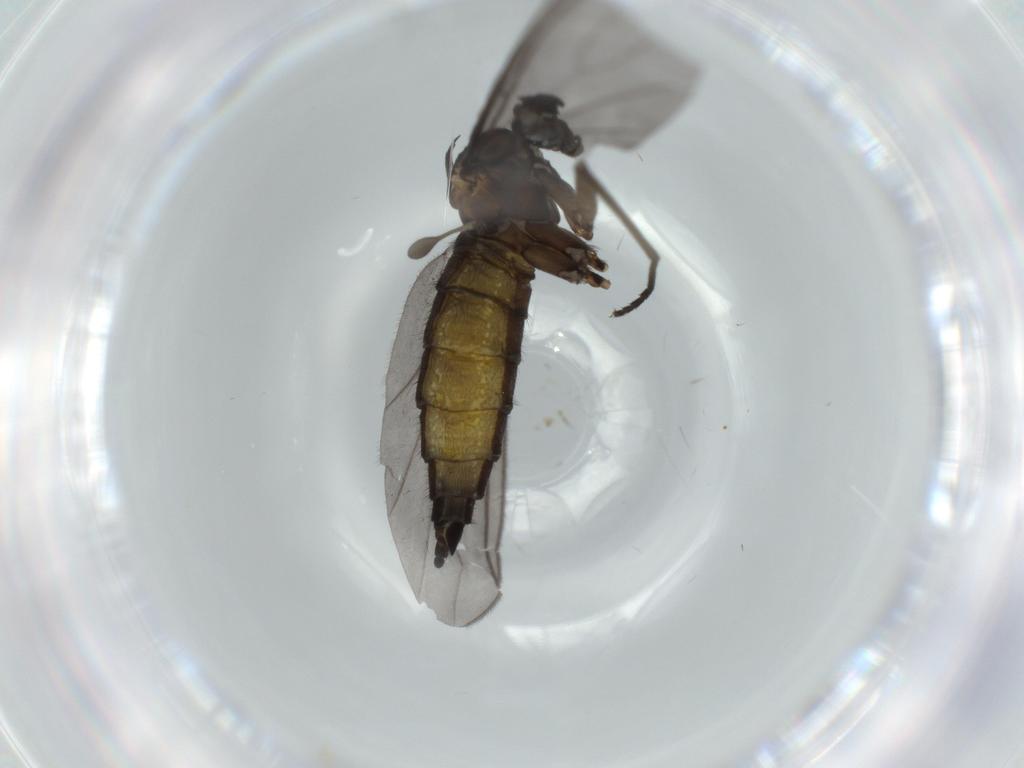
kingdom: Animalia
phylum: Arthropoda
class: Insecta
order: Diptera
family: Sciaridae
